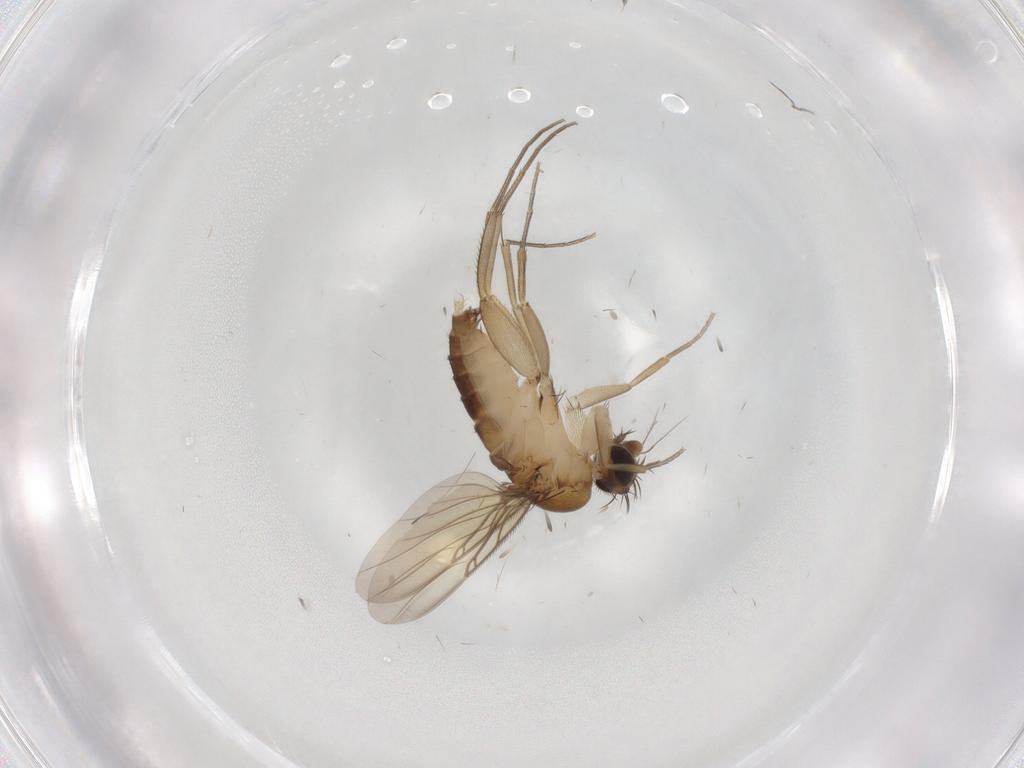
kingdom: Animalia
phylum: Arthropoda
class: Insecta
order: Diptera
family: Phoridae
